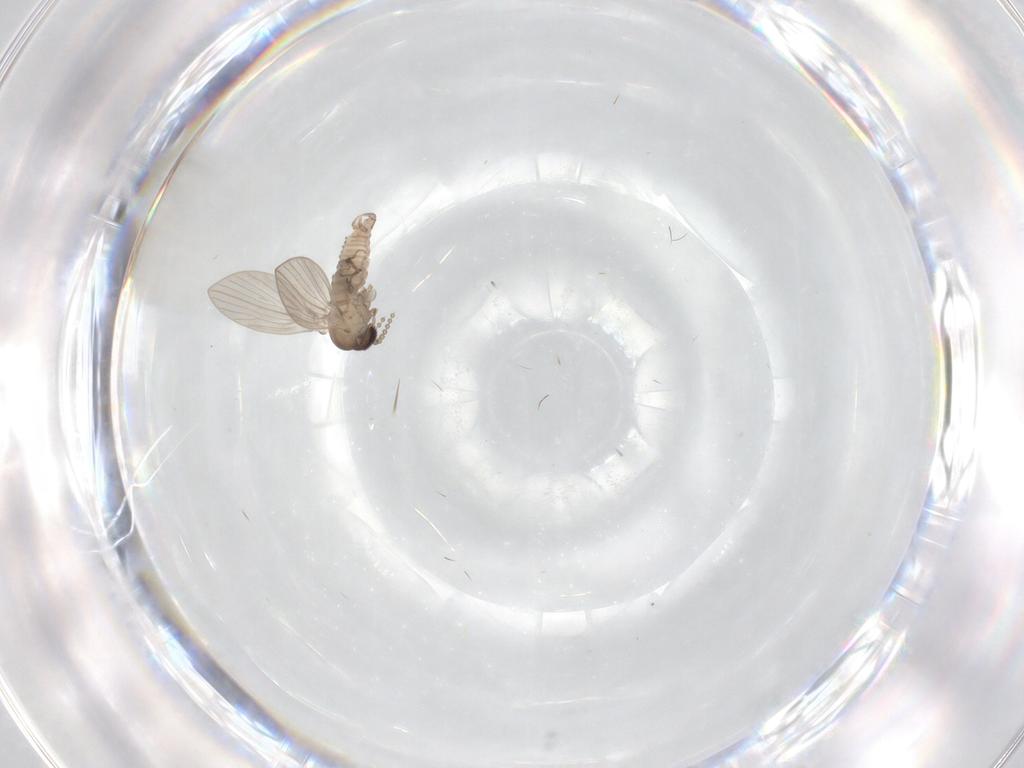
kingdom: Animalia
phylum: Arthropoda
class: Insecta
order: Diptera
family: Psychodidae
